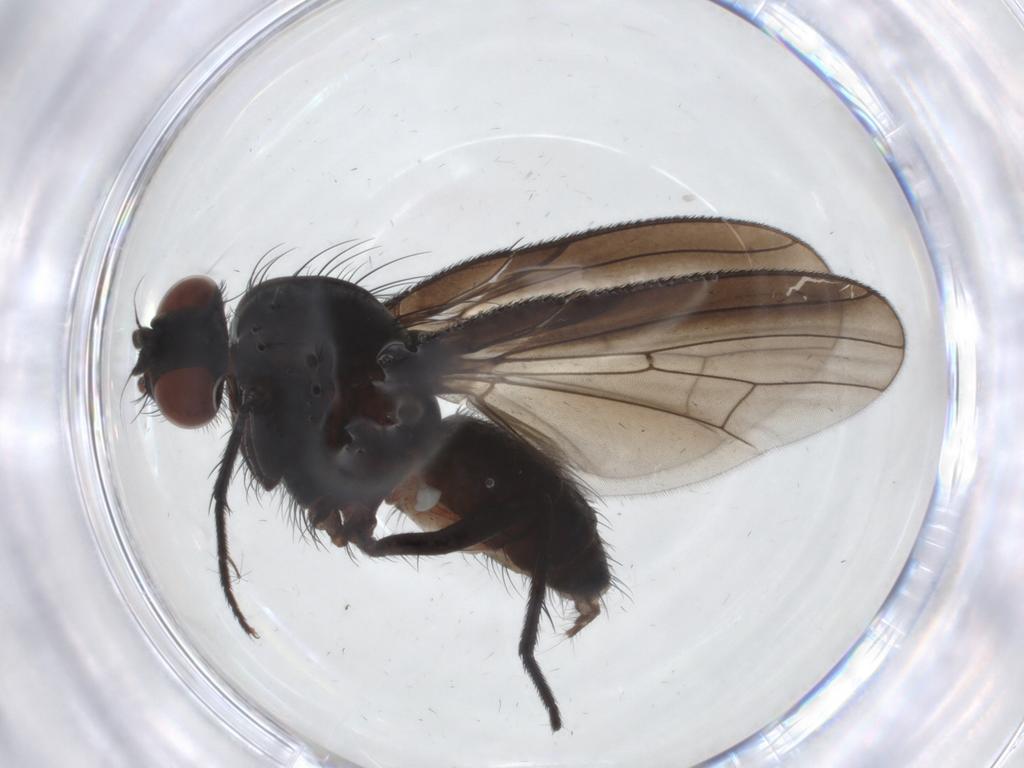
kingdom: Animalia
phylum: Arthropoda
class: Insecta
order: Diptera
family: Anthomyiidae
